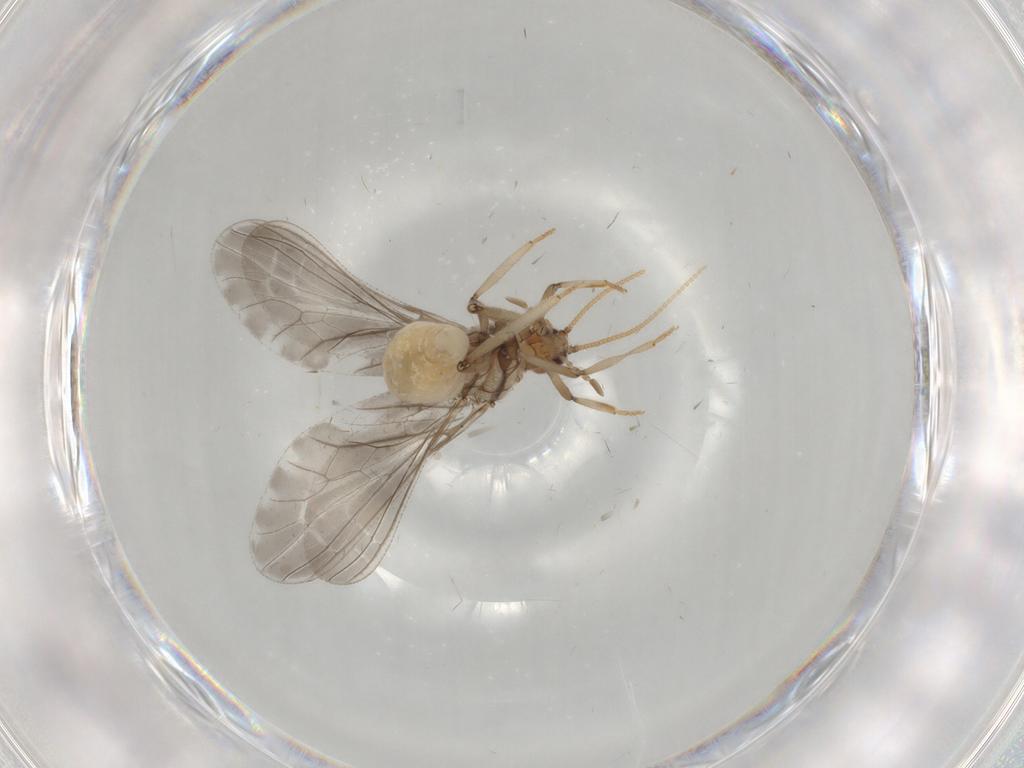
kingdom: Animalia
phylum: Arthropoda
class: Insecta
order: Neuroptera
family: Coniopterygidae
